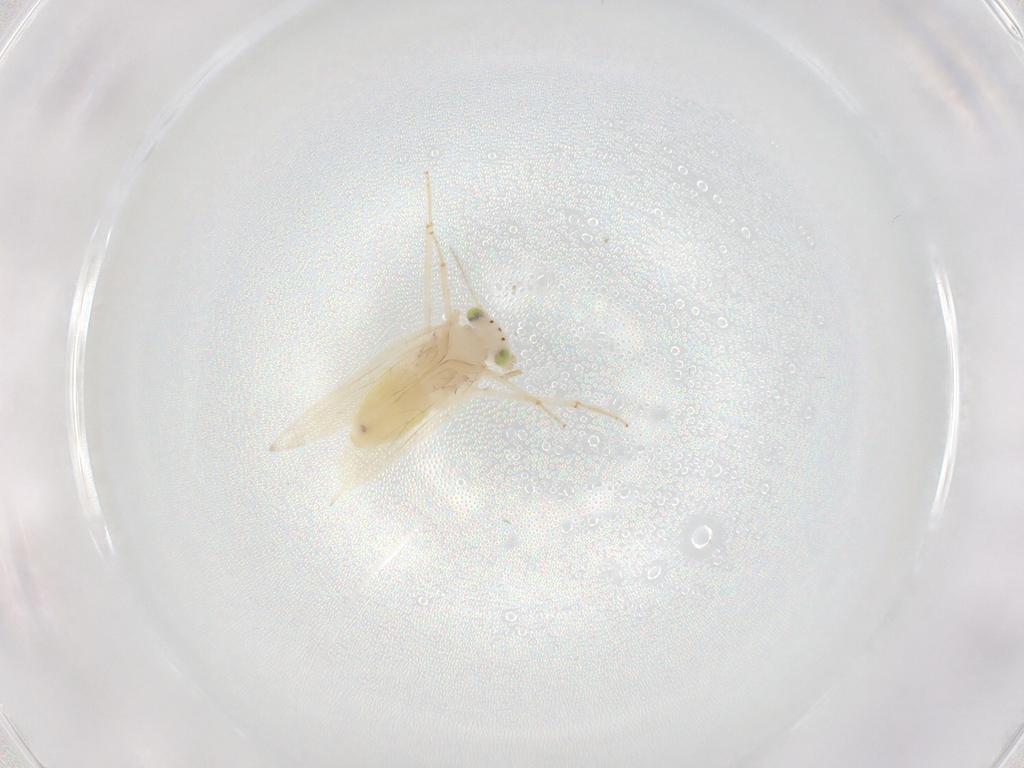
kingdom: Animalia
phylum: Arthropoda
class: Insecta
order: Psocodea
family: Lepidopsocidae
